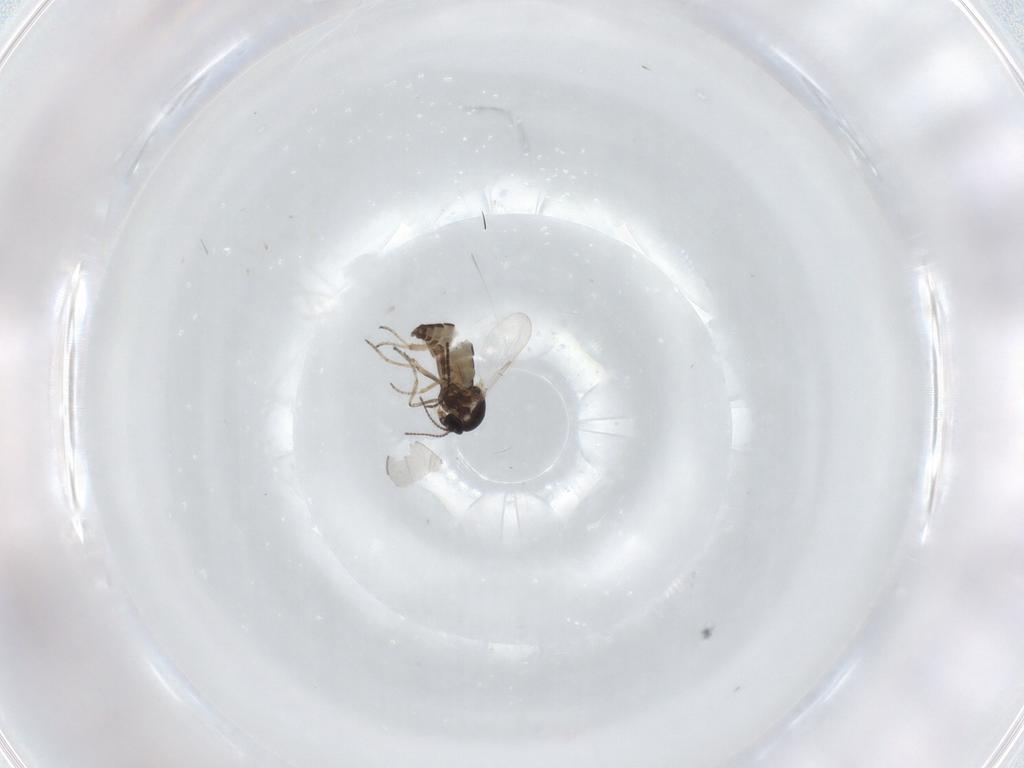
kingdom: Animalia
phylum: Arthropoda
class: Insecta
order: Diptera
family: Ceratopogonidae
